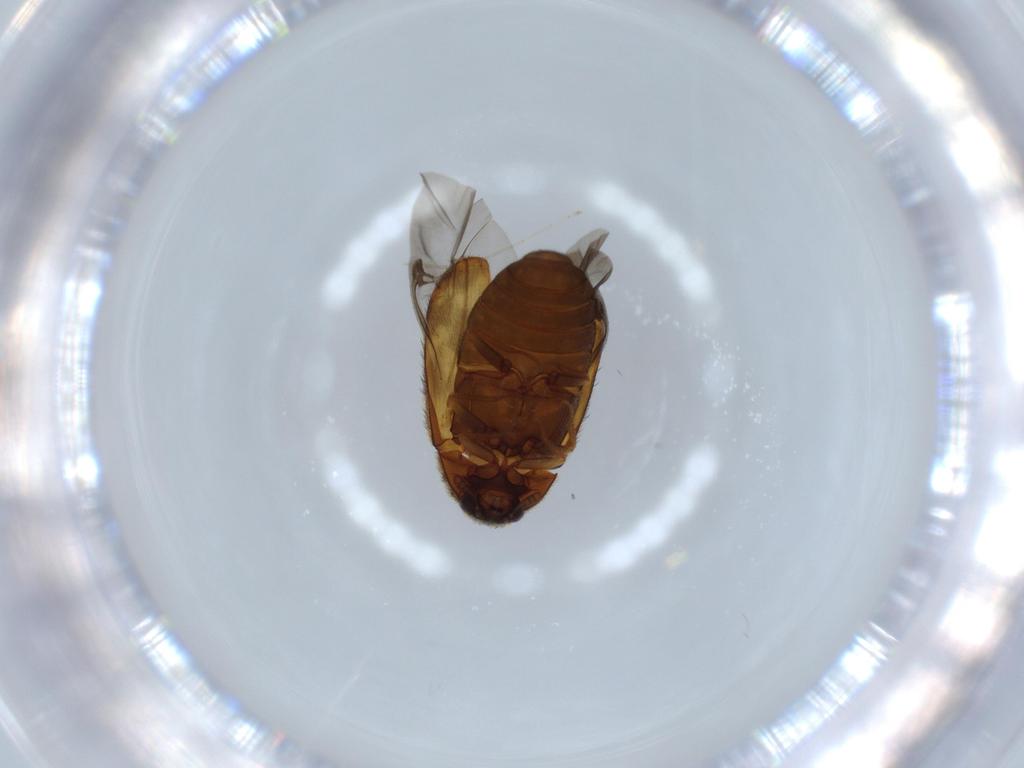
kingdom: Animalia
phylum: Arthropoda
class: Insecta
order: Coleoptera
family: Dermestidae
